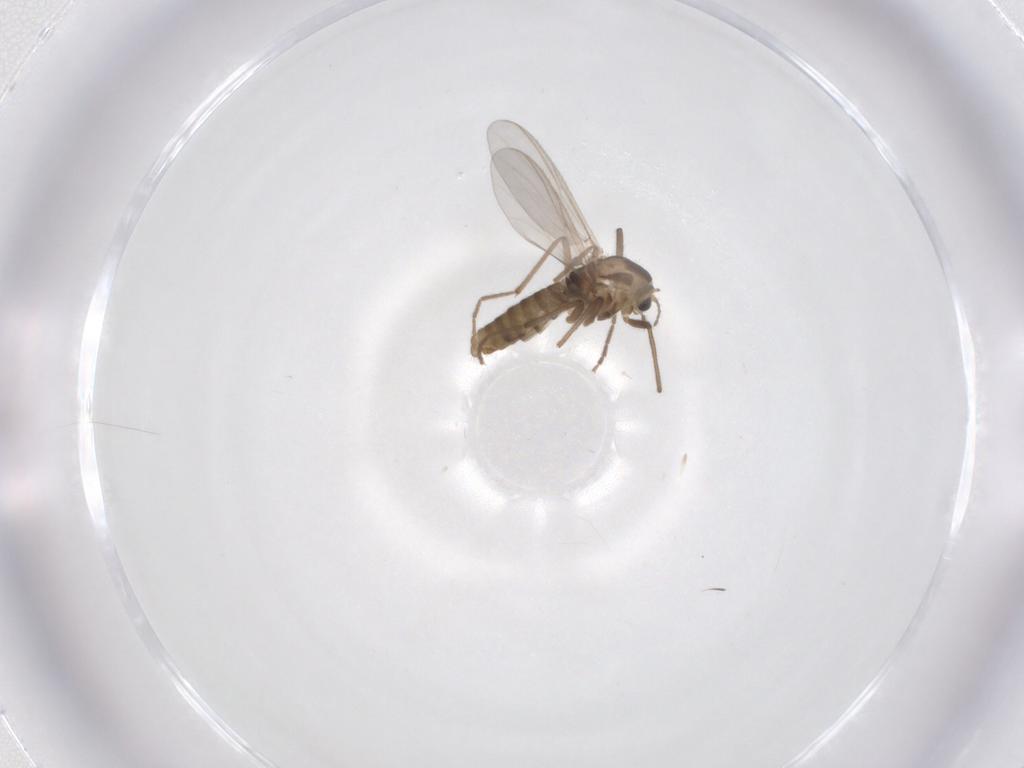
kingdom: Animalia
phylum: Arthropoda
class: Insecta
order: Diptera
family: Chironomidae
